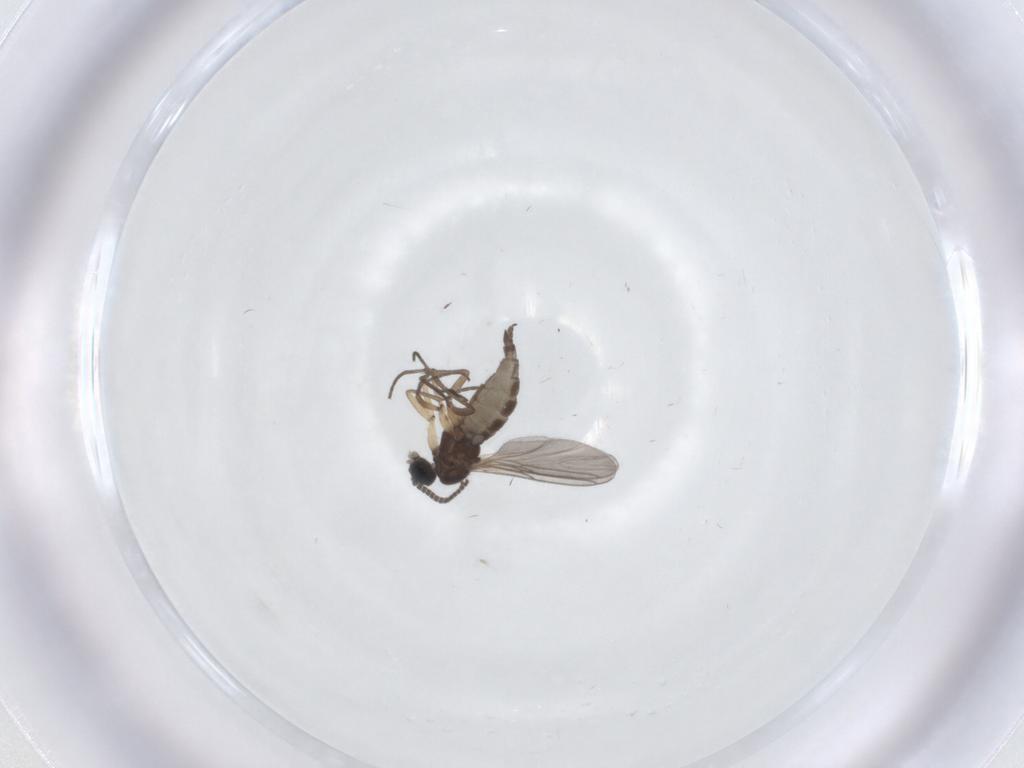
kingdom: Animalia
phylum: Arthropoda
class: Insecta
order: Diptera
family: Sciaridae
